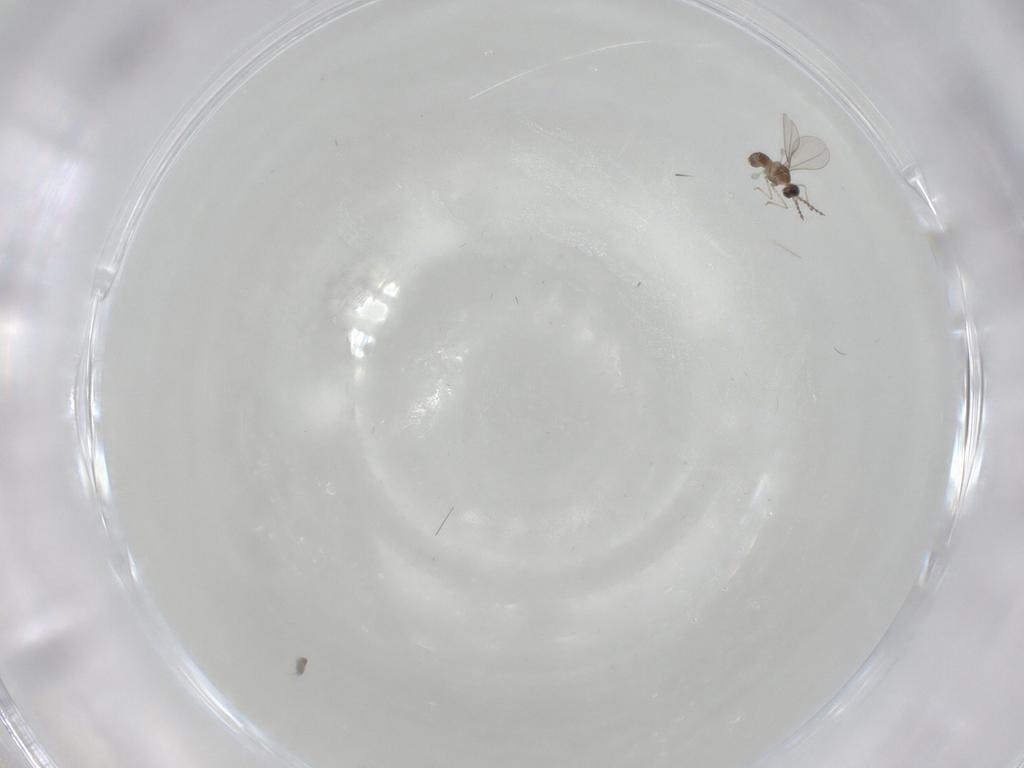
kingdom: Animalia
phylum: Arthropoda
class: Insecta
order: Diptera
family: Cecidomyiidae
